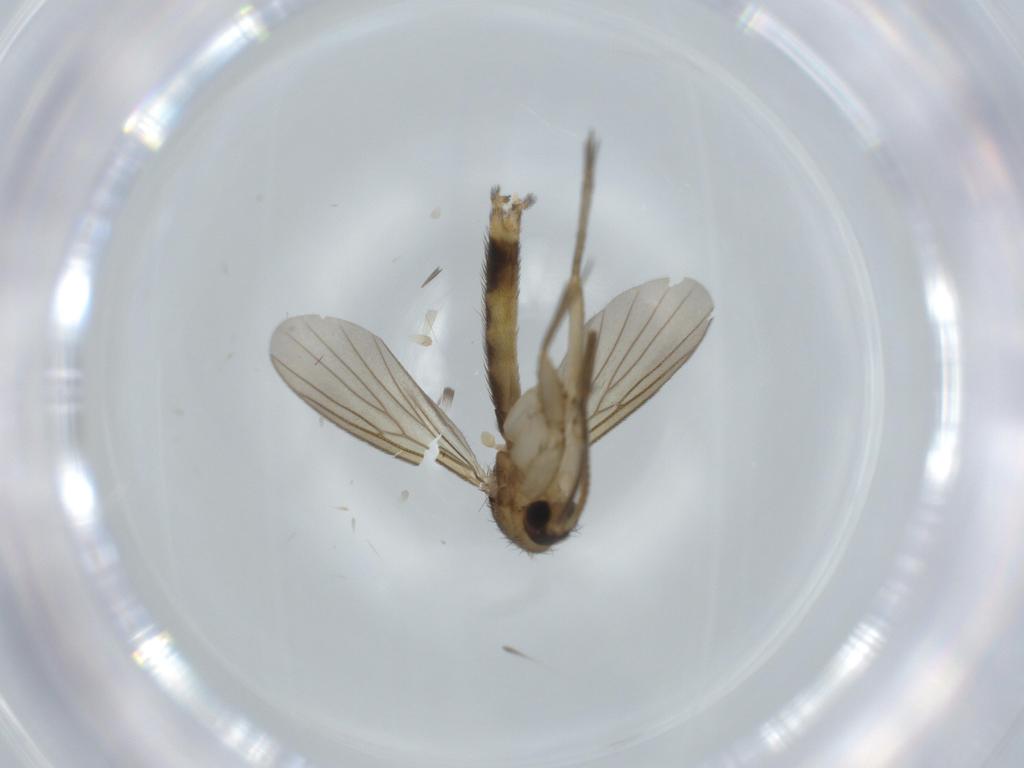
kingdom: Animalia
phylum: Arthropoda
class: Insecta
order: Diptera
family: Mycetophilidae
